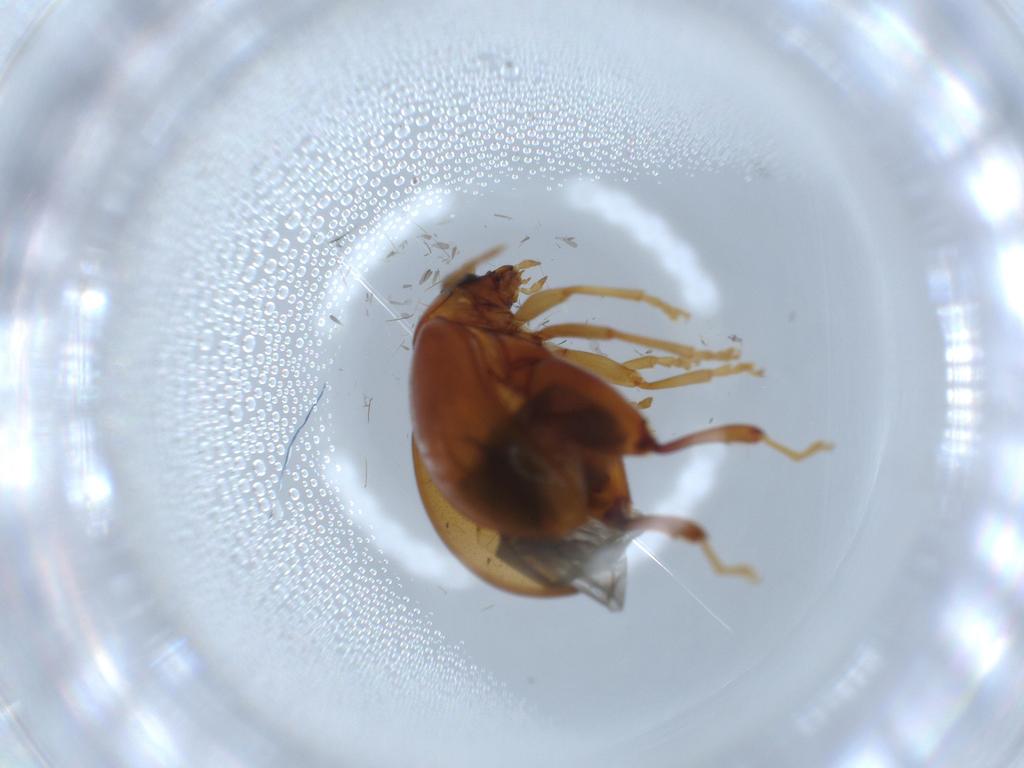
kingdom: Animalia
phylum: Arthropoda
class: Insecta
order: Coleoptera
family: Chrysomelidae
